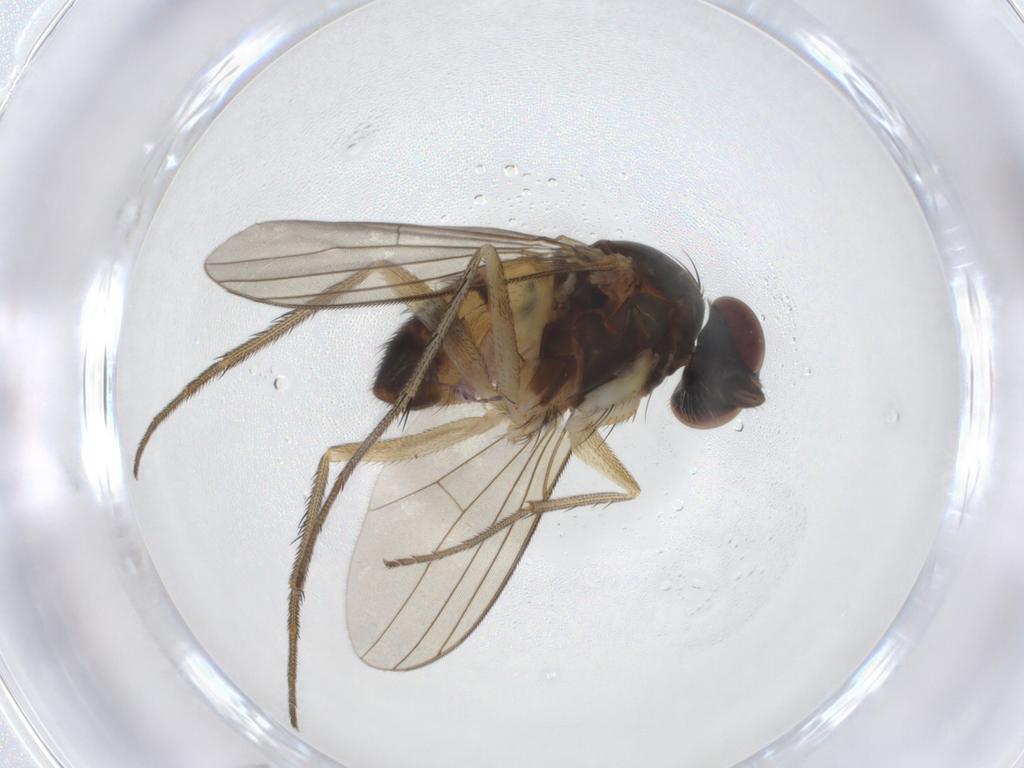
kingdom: Animalia
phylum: Arthropoda
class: Insecta
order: Diptera
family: Dolichopodidae
